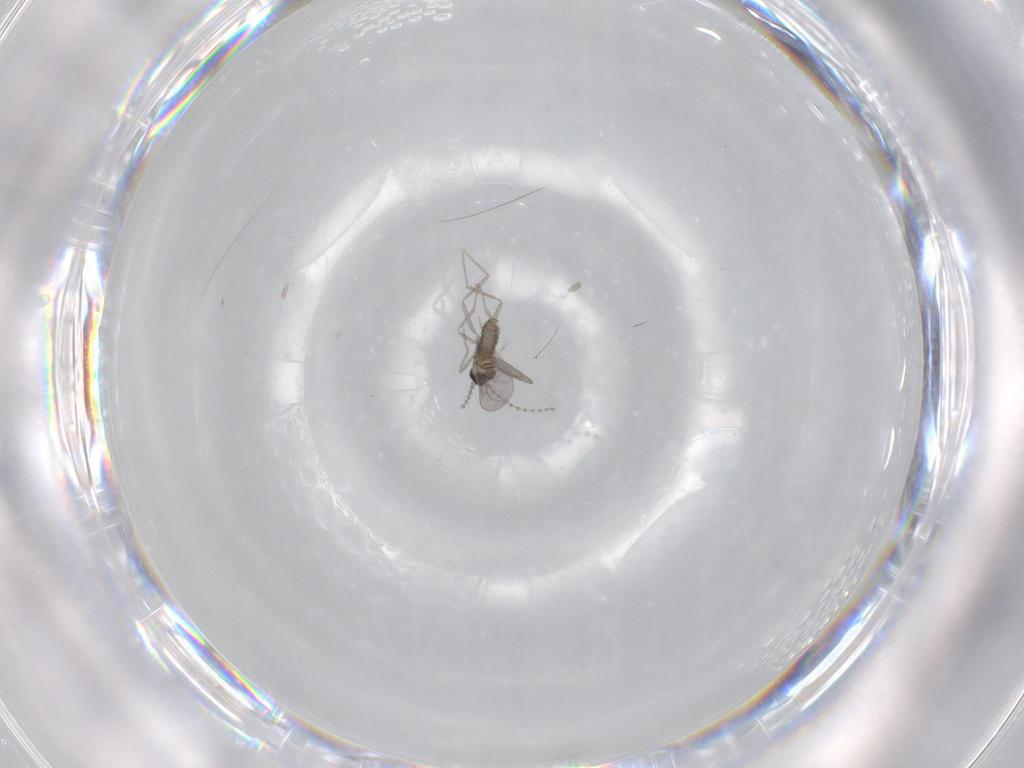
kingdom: Animalia
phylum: Arthropoda
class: Insecta
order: Diptera
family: Cecidomyiidae
